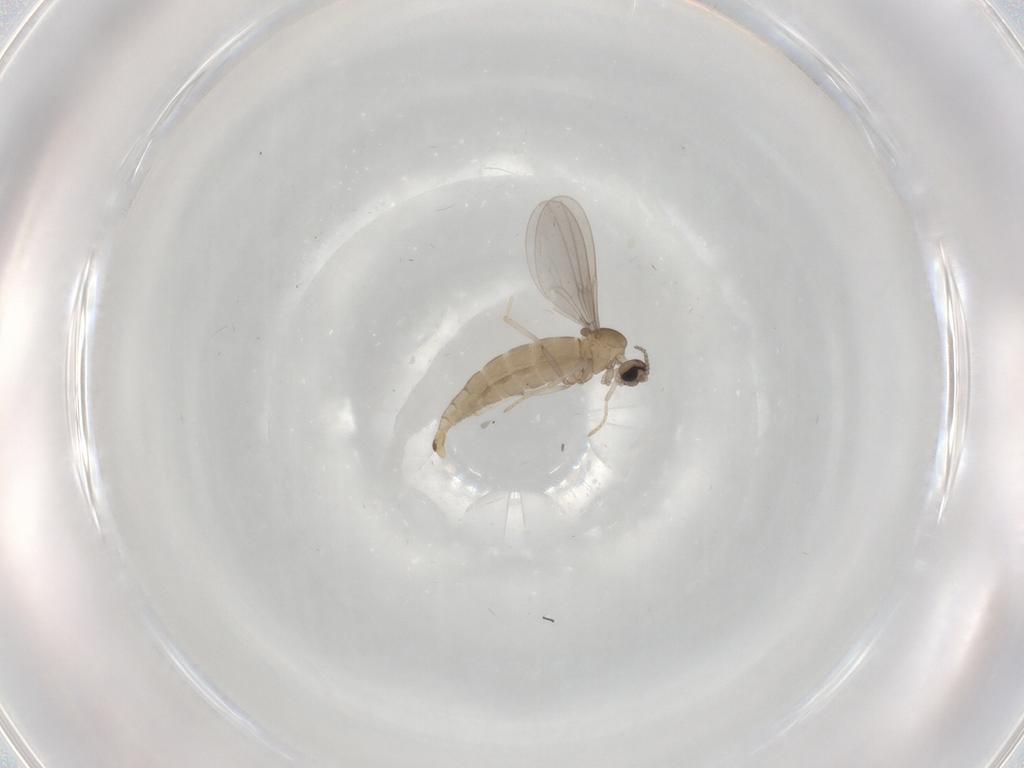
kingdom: Animalia
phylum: Arthropoda
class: Insecta
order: Diptera
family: Cecidomyiidae
